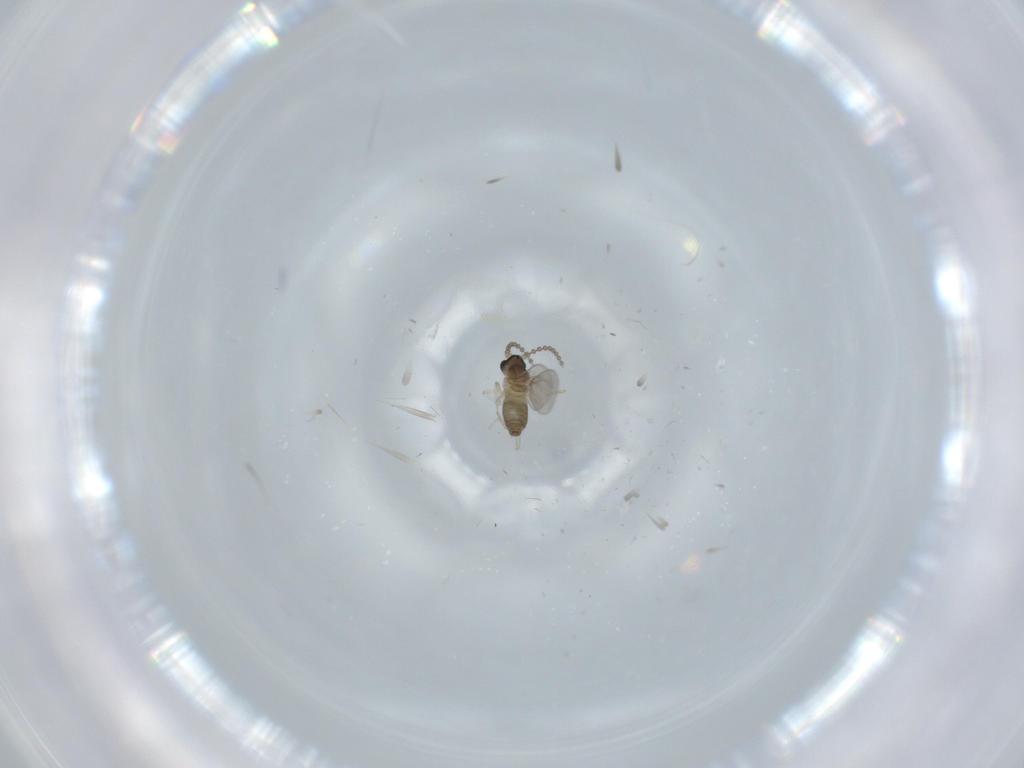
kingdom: Animalia
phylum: Arthropoda
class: Insecta
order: Diptera
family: Cecidomyiidae
